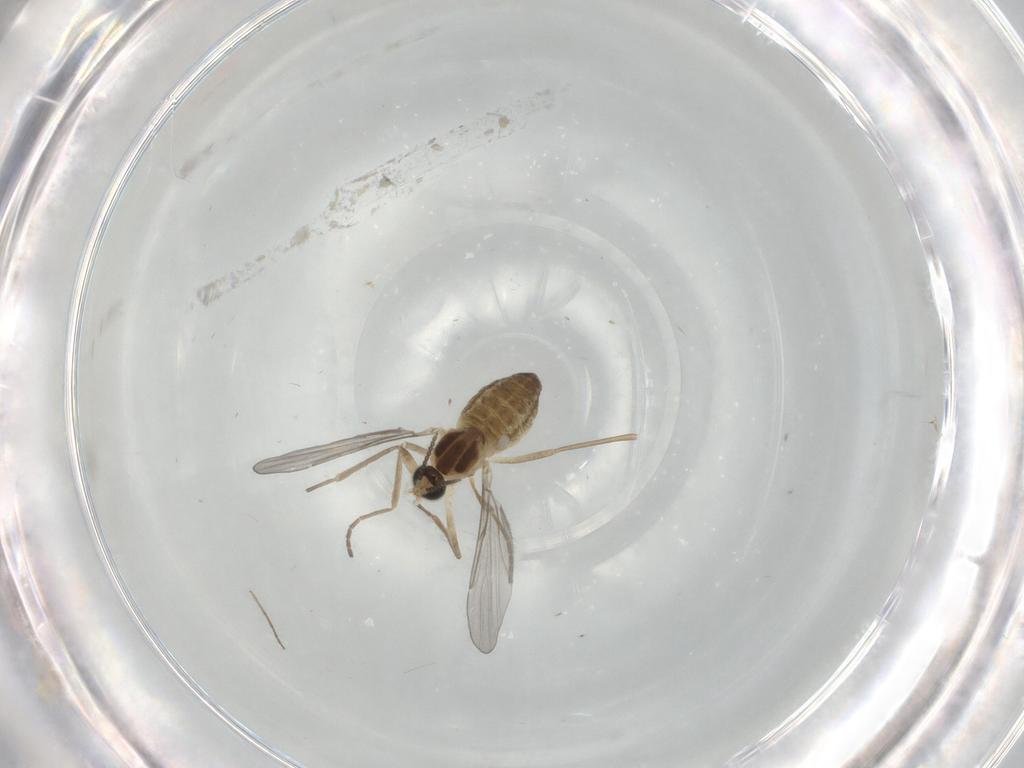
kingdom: Animalia
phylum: Arthropoda
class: Insecta
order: Diptera
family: Cecidomyiidae
